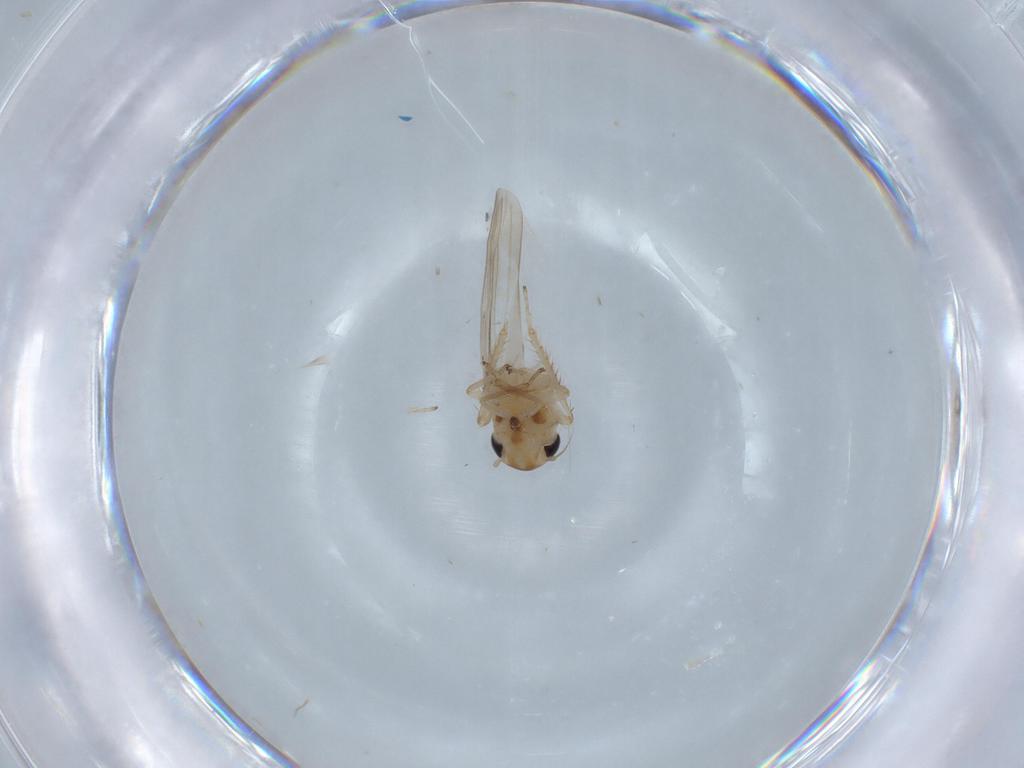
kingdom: Animalia
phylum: Arthropoda
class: Insecta
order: Hemiptera
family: Cicadellidae
